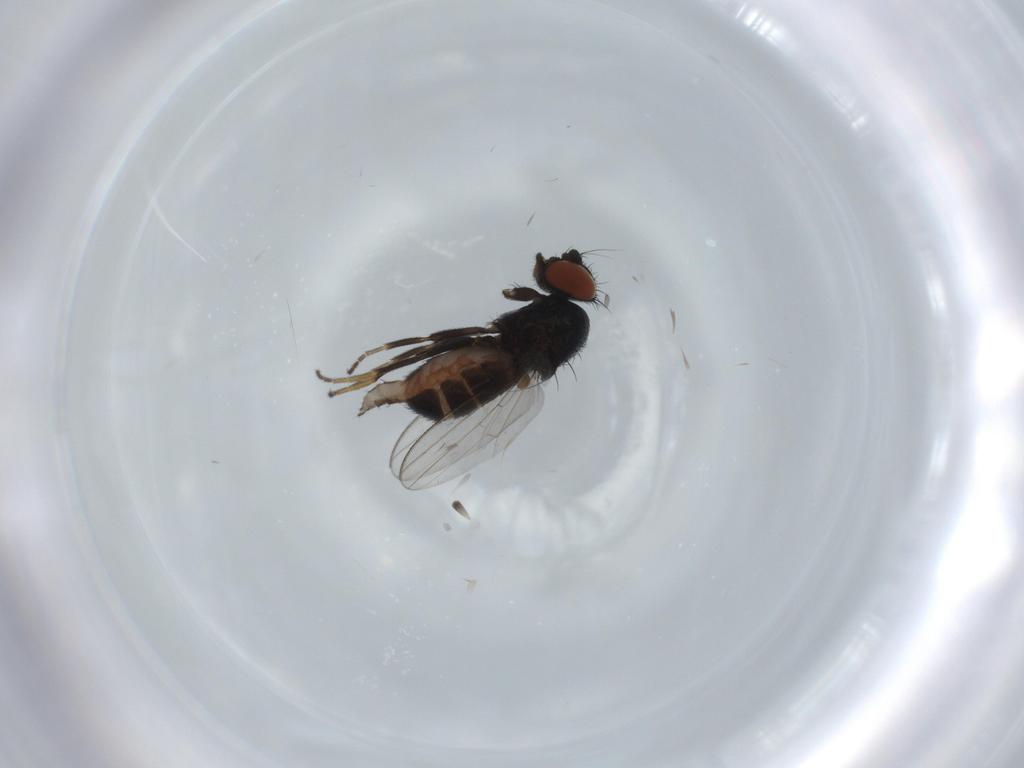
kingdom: Animalia
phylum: Arthropoda
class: Insecta
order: Diptera
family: Milichiidae
